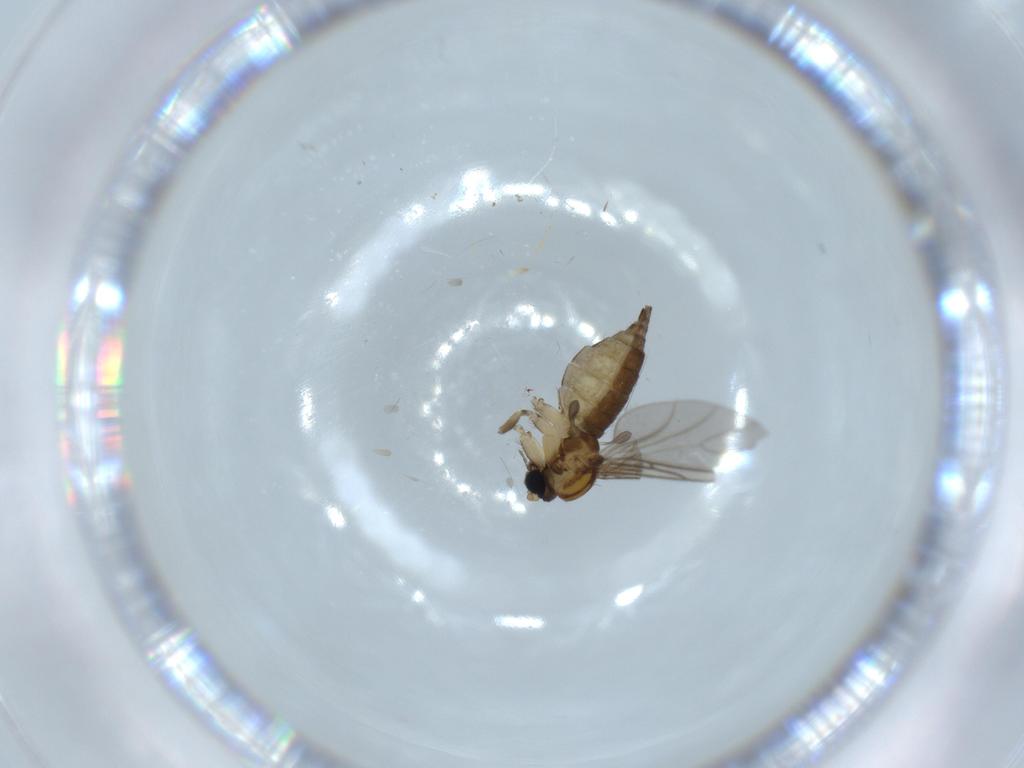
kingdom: Animalia
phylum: Arthropoda
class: Insecta
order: Diptera
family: Sciaridae
